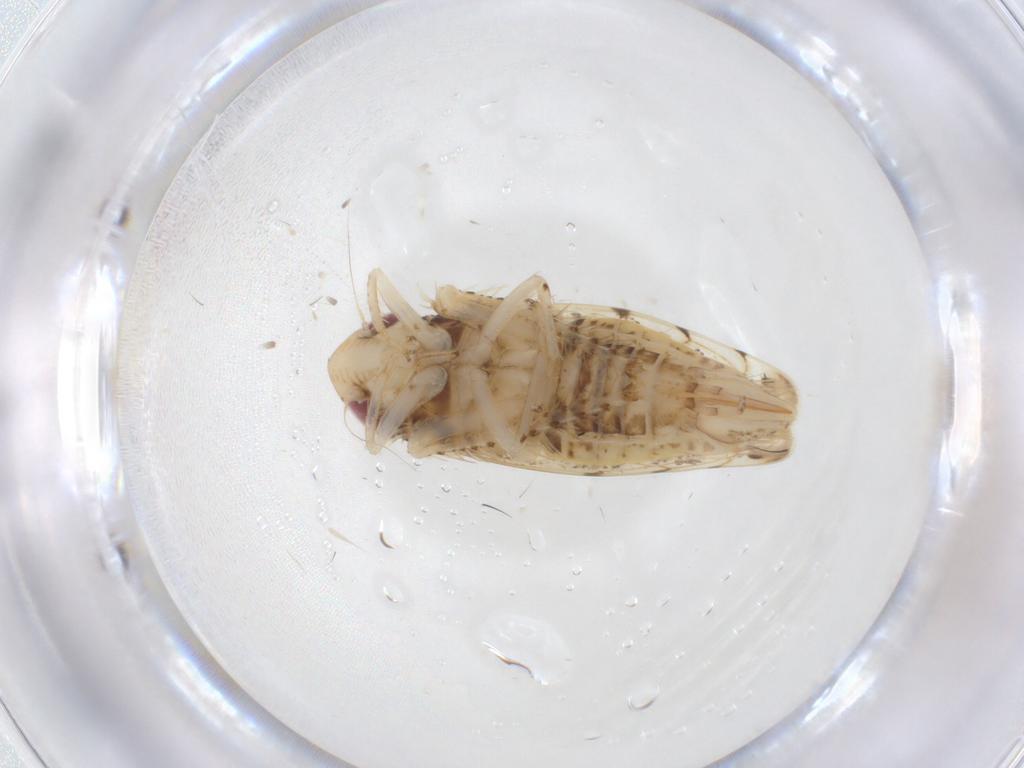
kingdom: Animalia
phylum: Arthropoda
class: Insecta
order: Hemiptera
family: Cicadellidae
